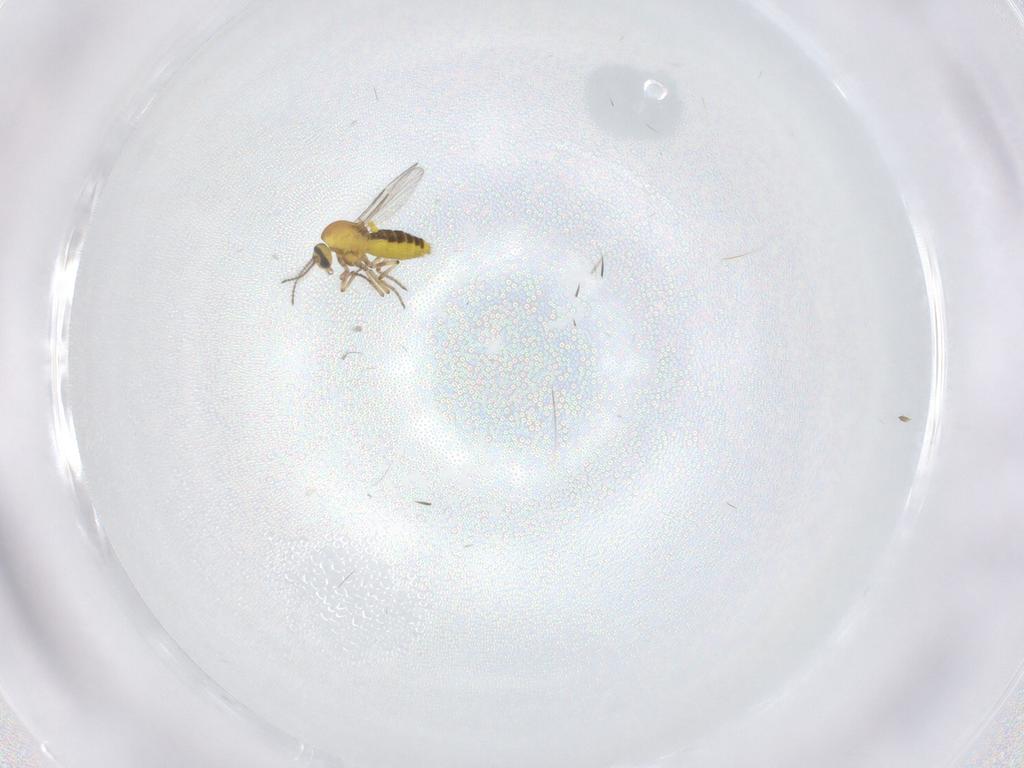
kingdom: Animalia
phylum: Arthropoda
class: Insecta
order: Diptera
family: Ceratopogonidae
